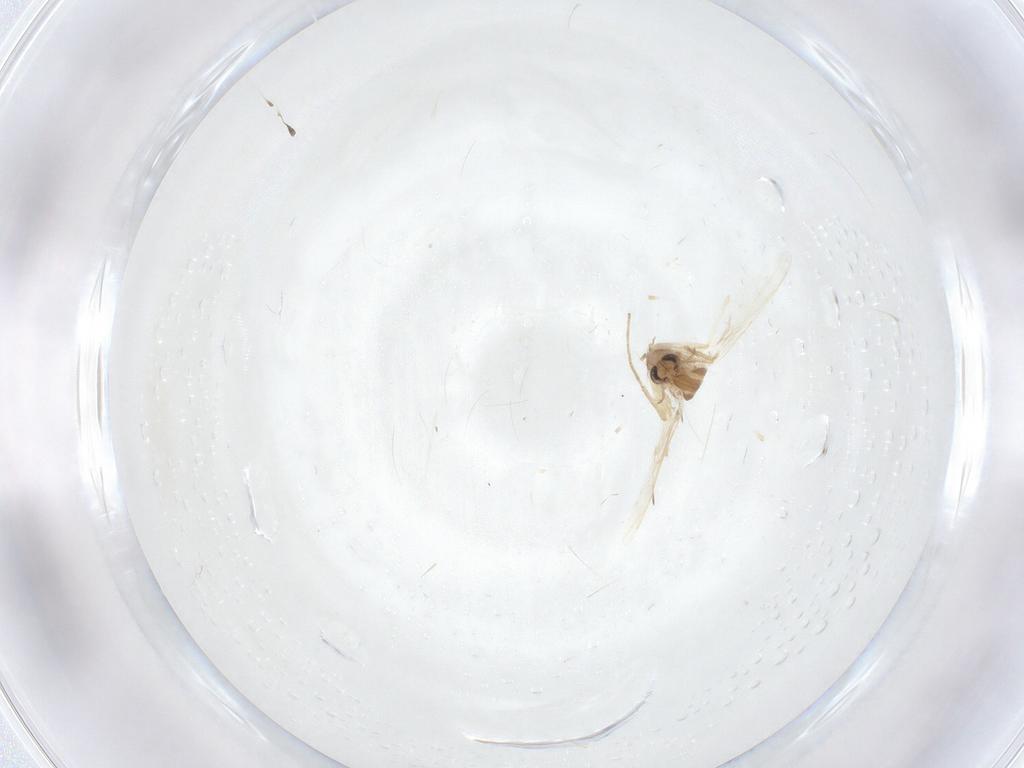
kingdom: Animalia
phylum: Arthropoda
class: Insecta
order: Diptera
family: Cecidomyiidae
